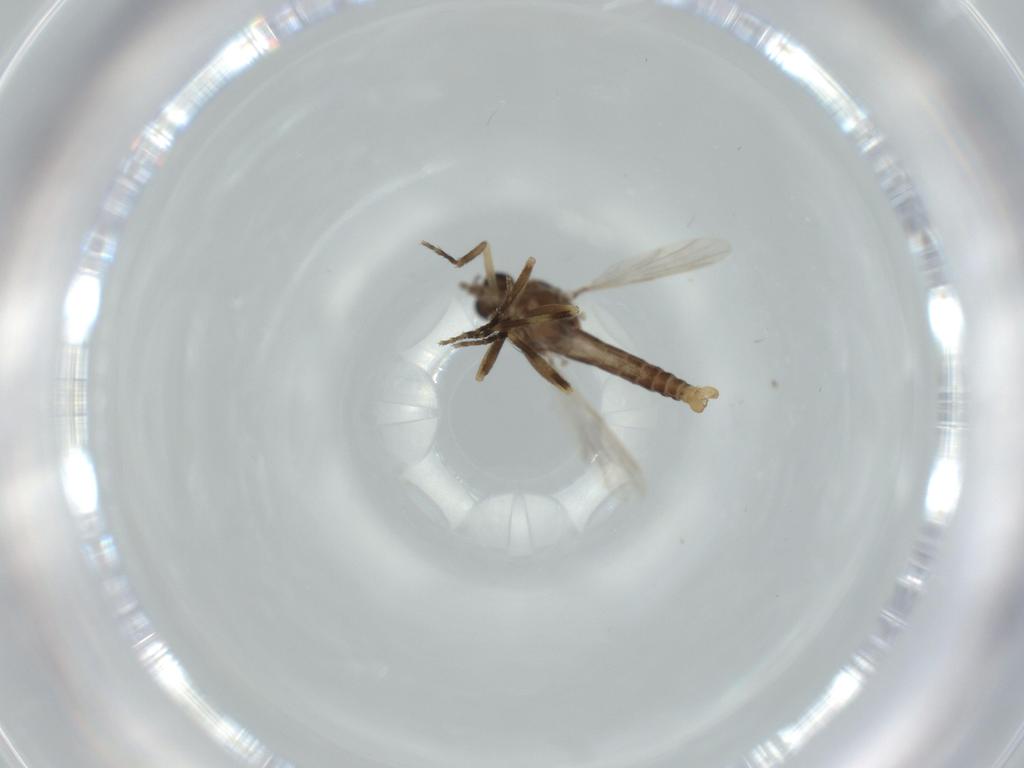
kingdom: Animalia
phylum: Arthropoda
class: Insecta
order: Diptera
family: Ceratopogonidae
